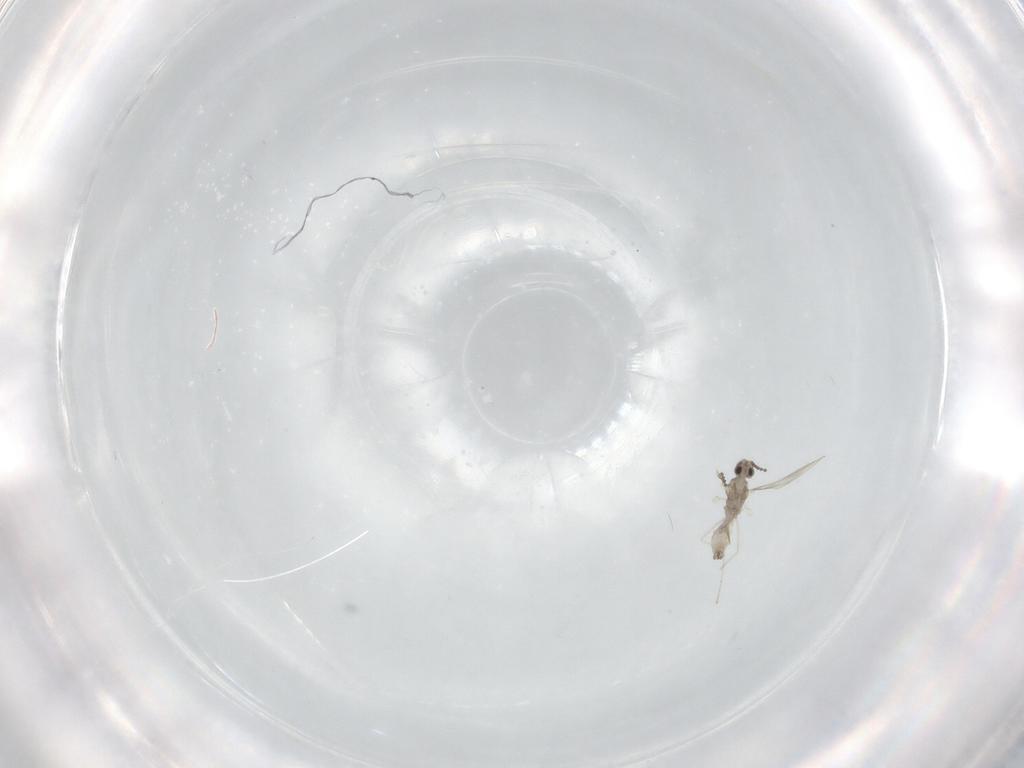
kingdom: Animalia
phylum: Arthropoda
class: Insecta
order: Diptera
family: Cecidomyiidae
